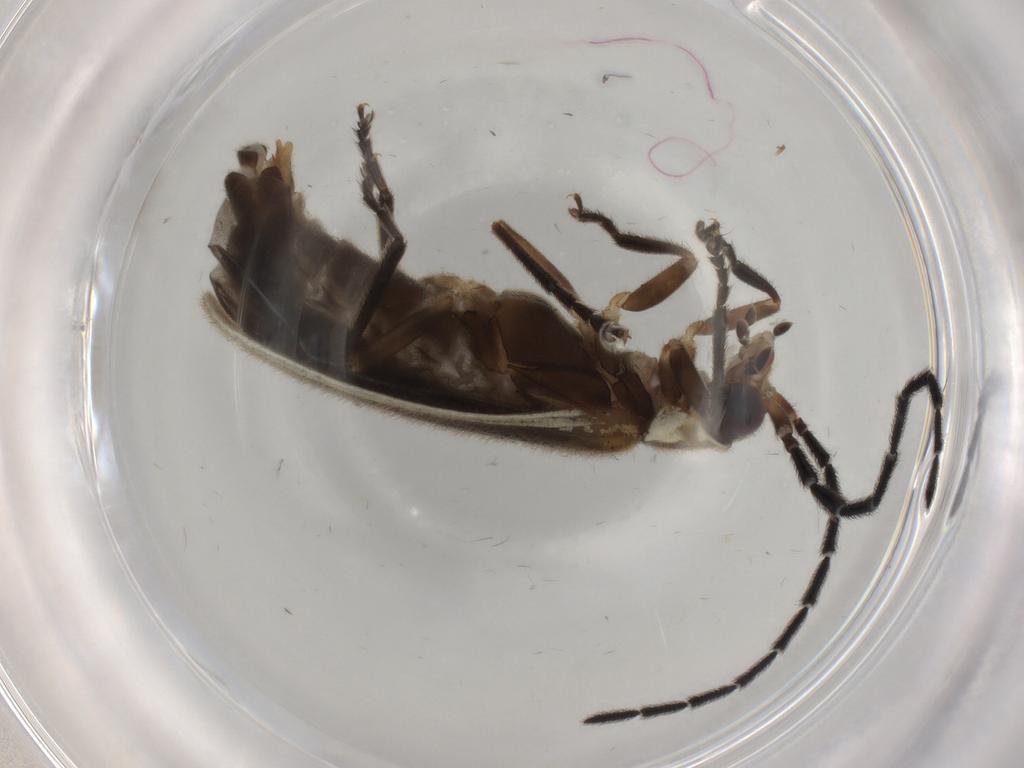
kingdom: Animalia
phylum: Arthropoda
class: Insecta
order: Coleoptera
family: Cantharidae
